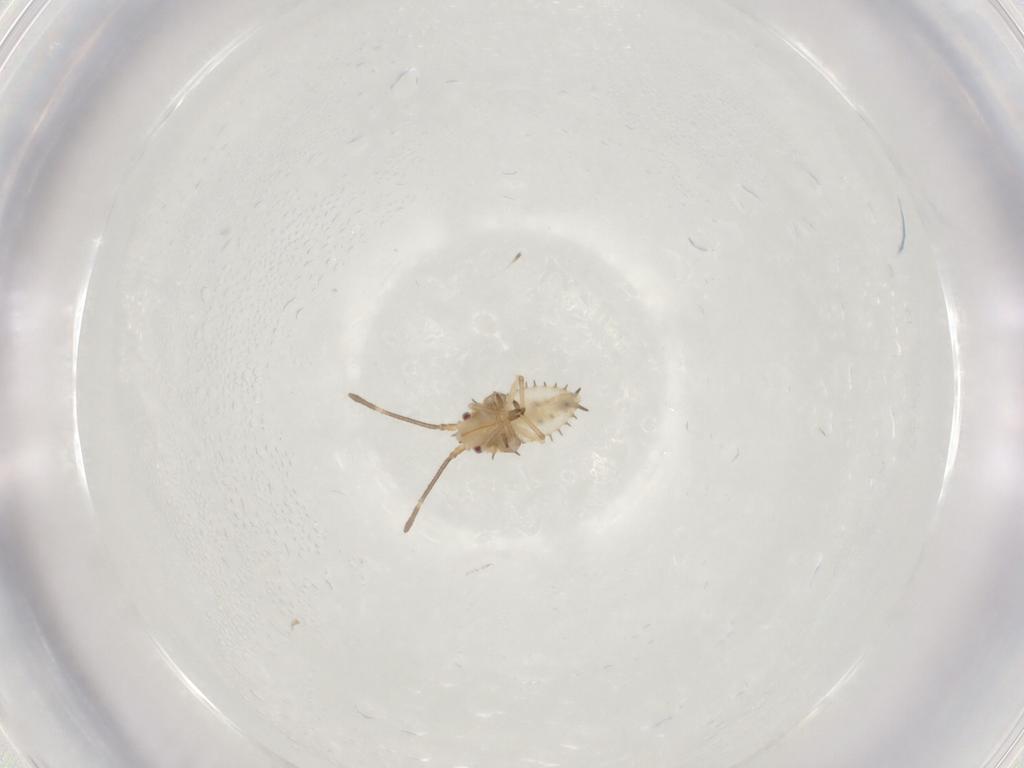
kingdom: Animalia
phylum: Arthropoda
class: Insecta
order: Hemiptera
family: Tingidae
